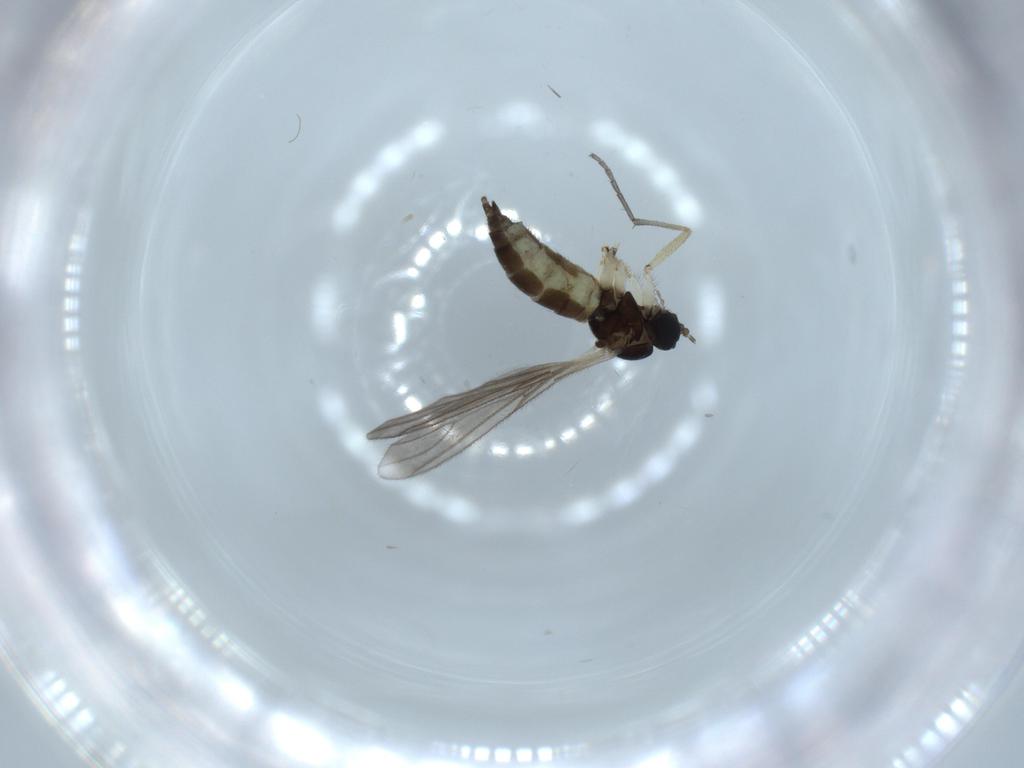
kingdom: Animalia
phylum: Arthropoda
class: Insecta
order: Diptera
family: Sciaridae
